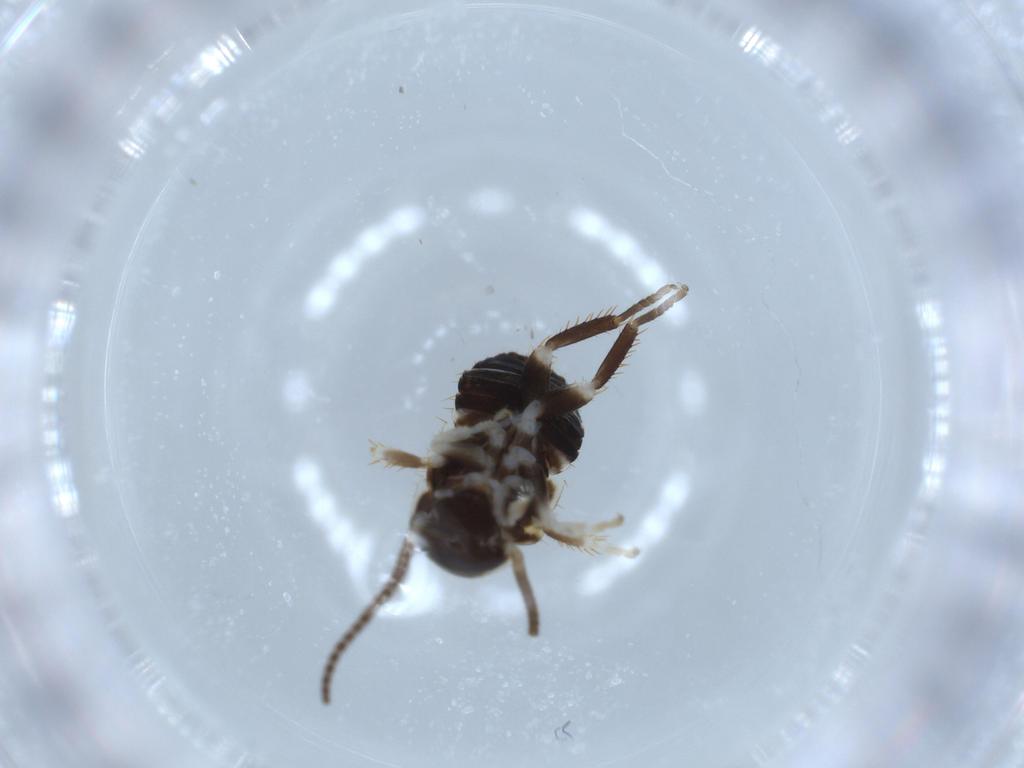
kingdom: Animalia
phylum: Arthropoda
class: Insecta
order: Blattodea
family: Ectobiidae
